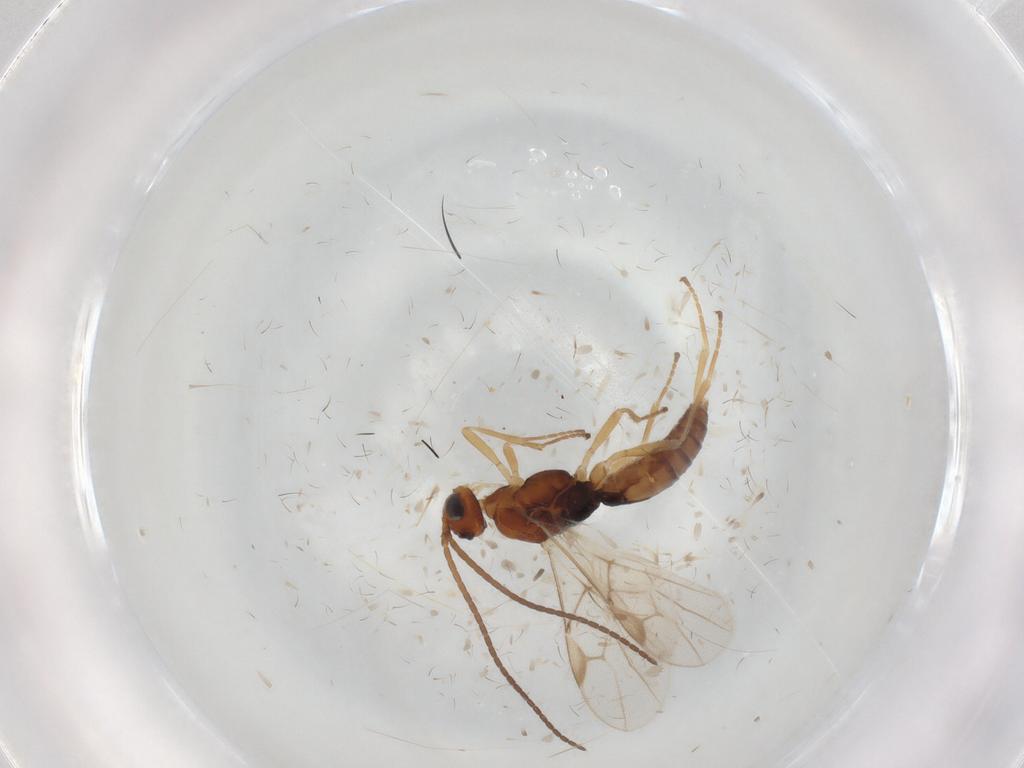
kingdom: Animalia
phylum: Arthropoda
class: Insecta
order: Hymenoptera
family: Braconidae
